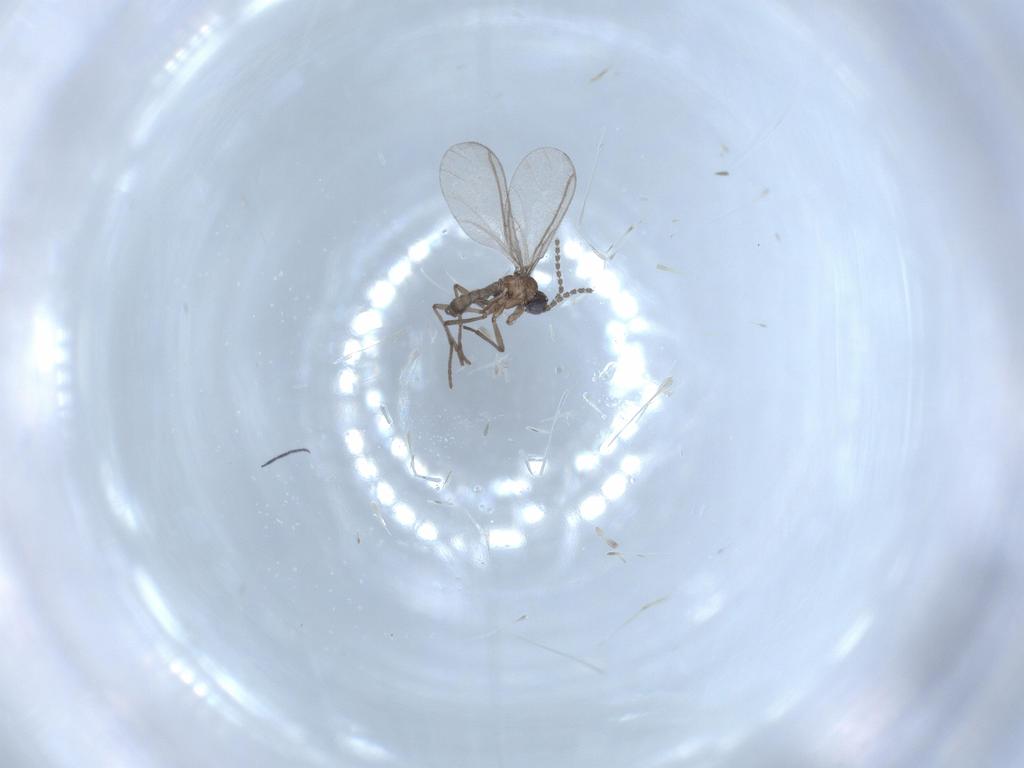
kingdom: Animalia
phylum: Arthropoda
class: Insecta
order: Diptera
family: Sciaridae
